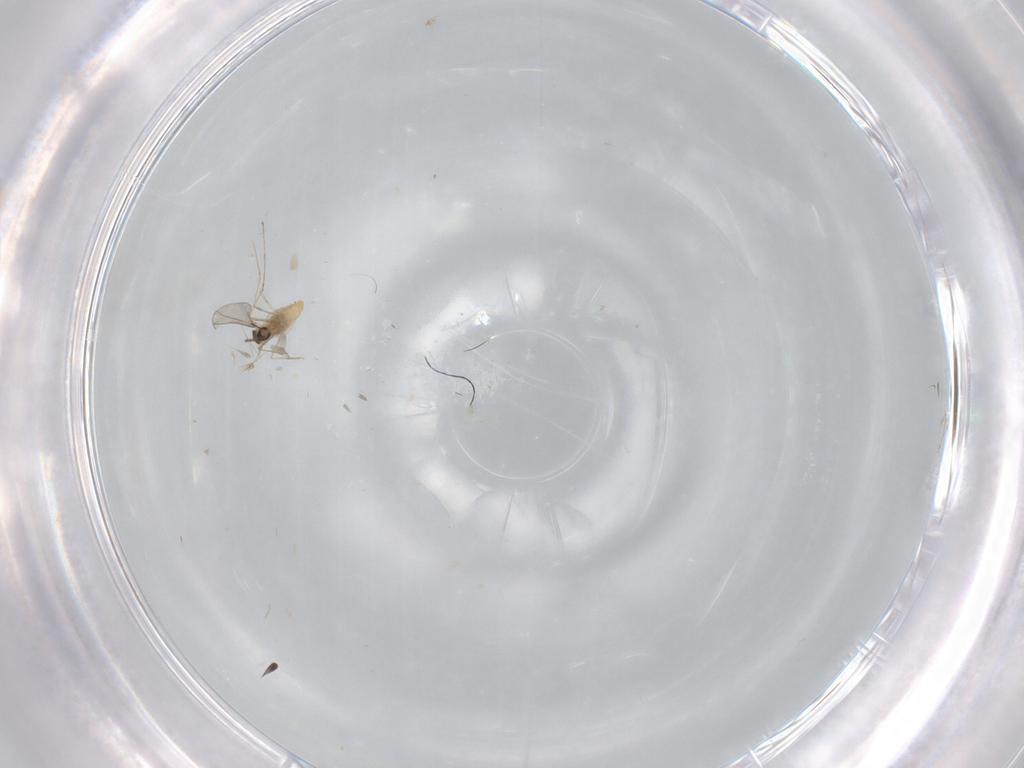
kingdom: Animalia
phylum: Arthropoda
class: Insecta
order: Diptera
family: Cecidomyiidae
